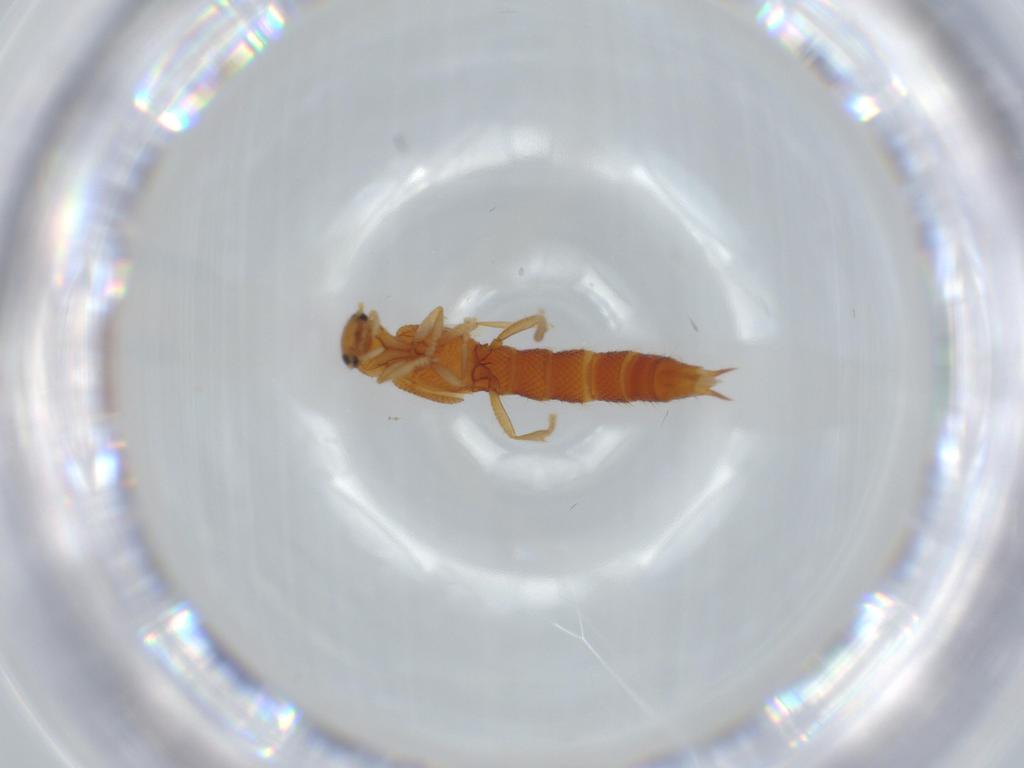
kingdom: Animalia
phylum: Arthropoda
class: Insecta
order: Coleoptera
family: Staphylinidae
